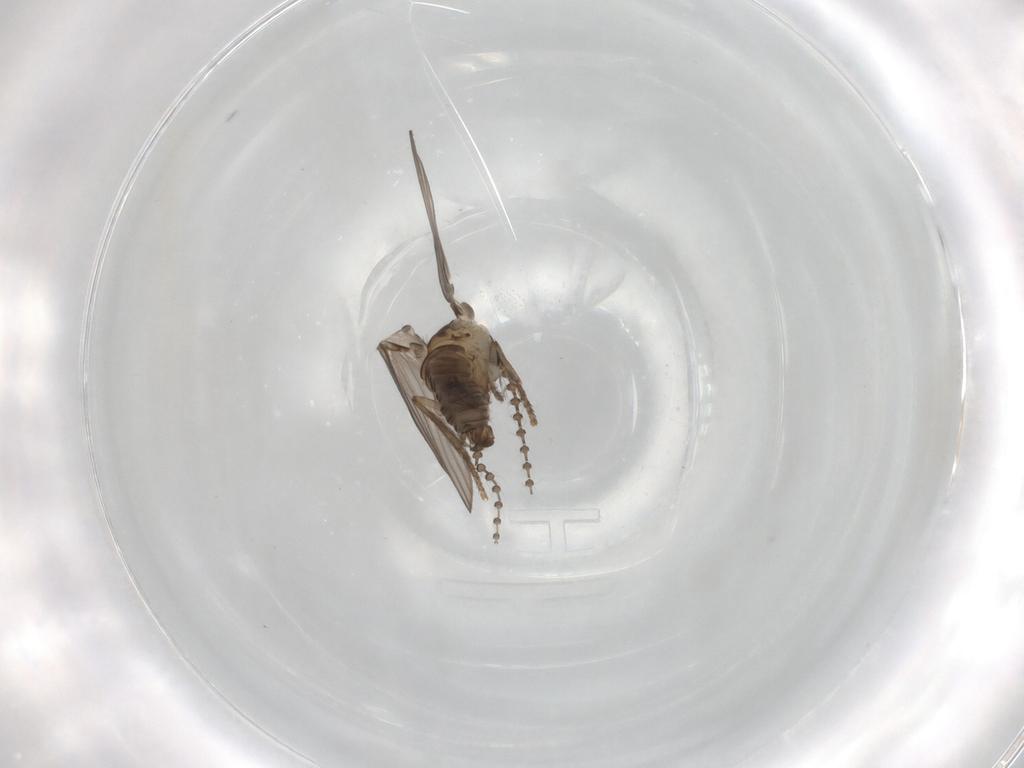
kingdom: Animalia
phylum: Arthropoda
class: Insecta
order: Diptera
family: Psychodidae
